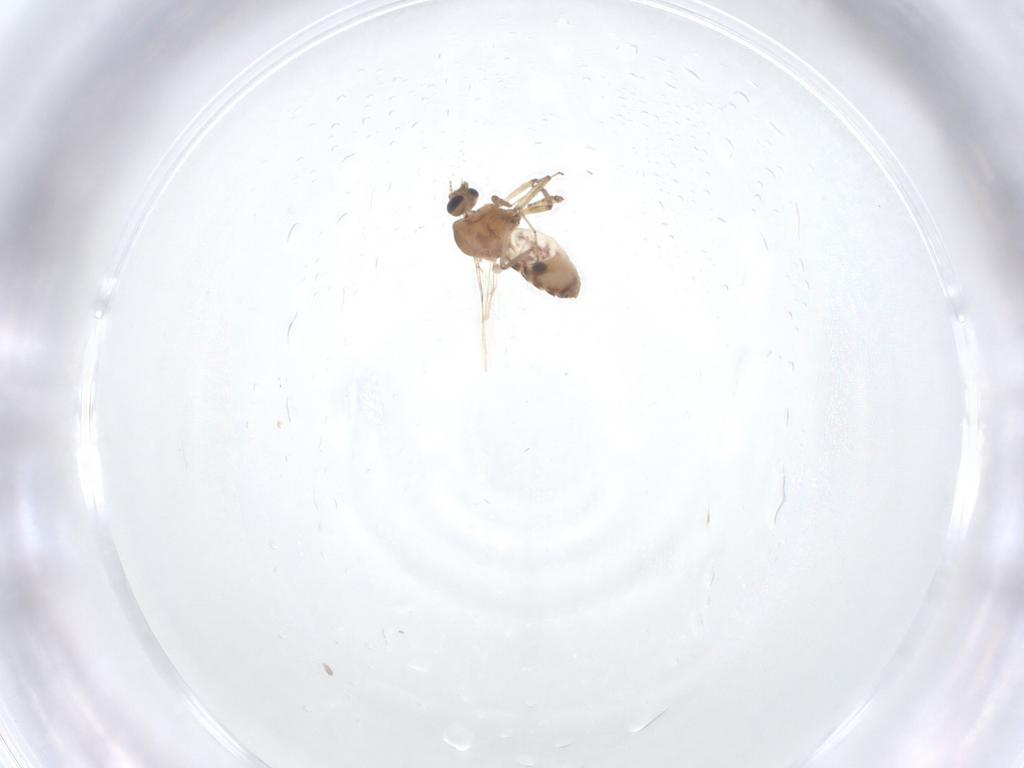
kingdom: Animalia
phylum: Arthropoda
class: Insecta
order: Diptera
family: Ceratopogonidae
